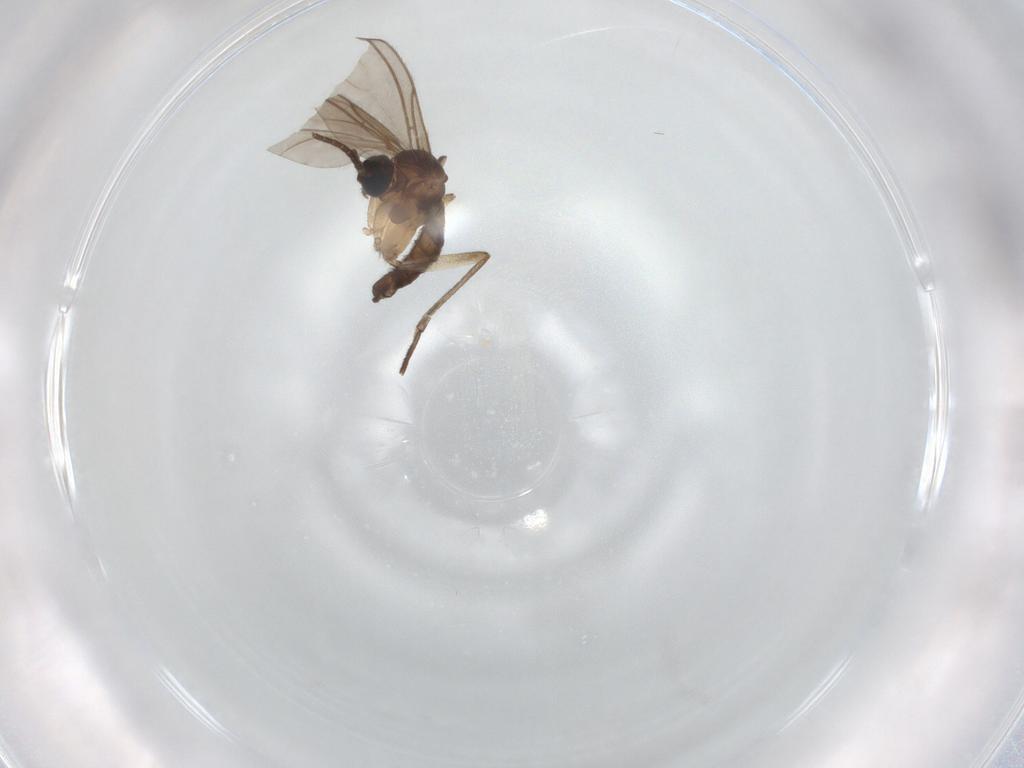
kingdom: Animalia
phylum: Arthropoda
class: Insecta
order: Diptera
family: Sciaridae
